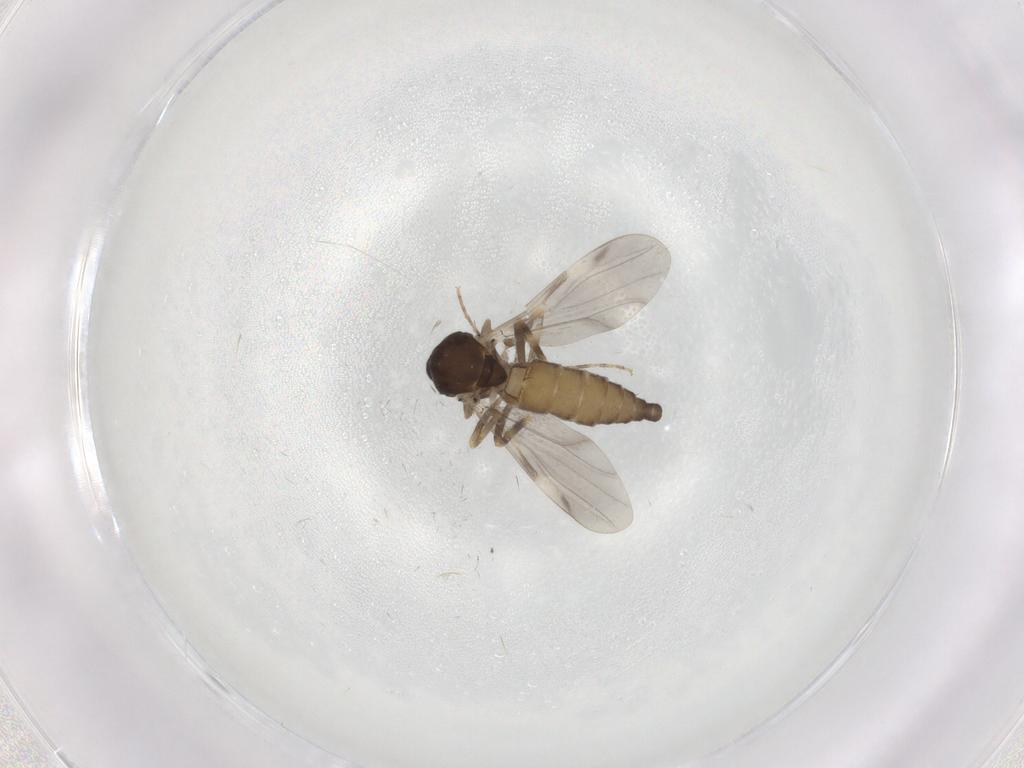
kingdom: Animalia
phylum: Arthropoda
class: Insecta
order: Diptera
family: Ceratopogonidae
